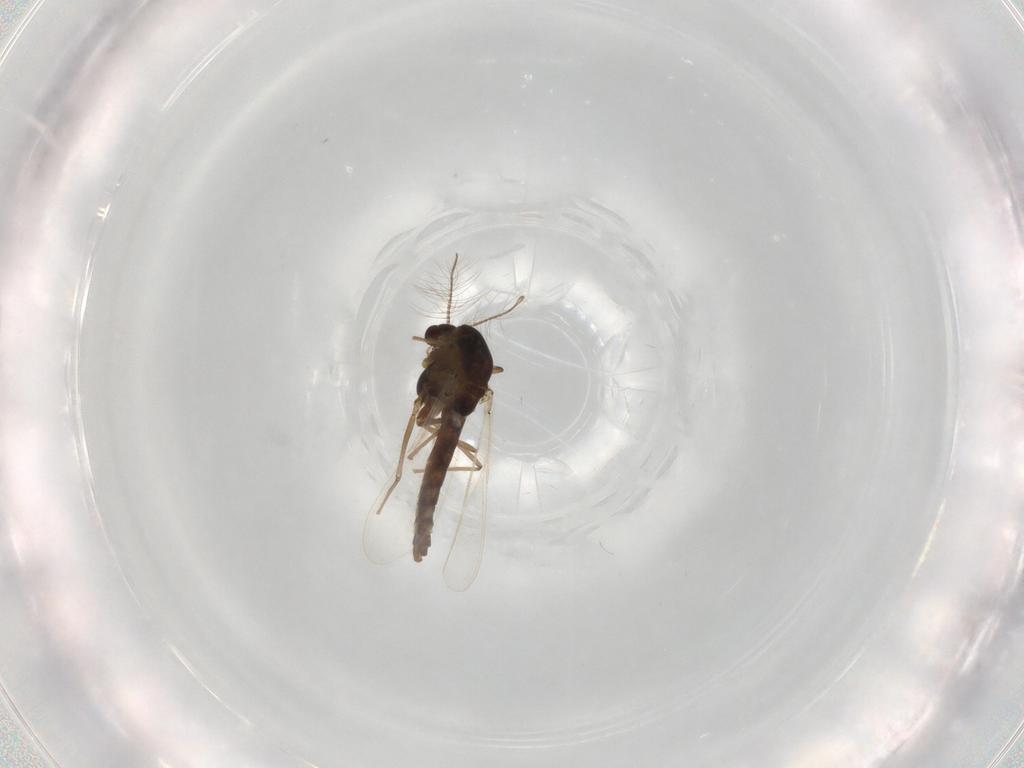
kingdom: Animalia
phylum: Arthropoda
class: Insecta
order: Diptera
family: Chironomidae
